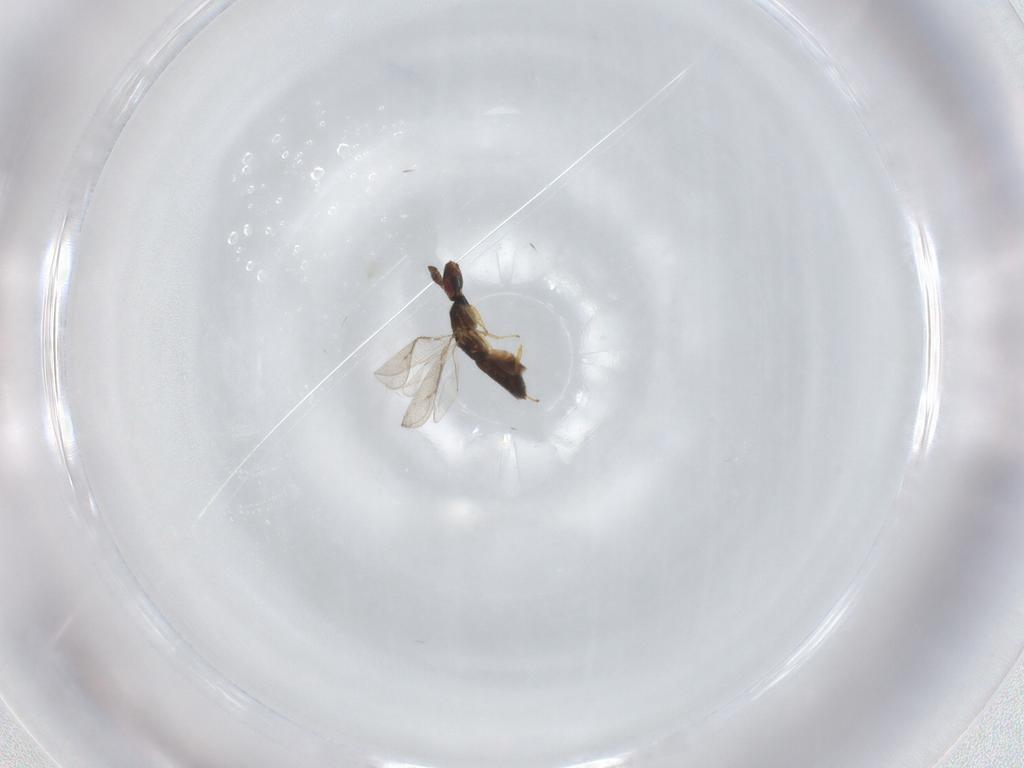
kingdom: Animalia
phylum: Arthropoda
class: Insecta
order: Hymenoptera
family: Eulophidae
